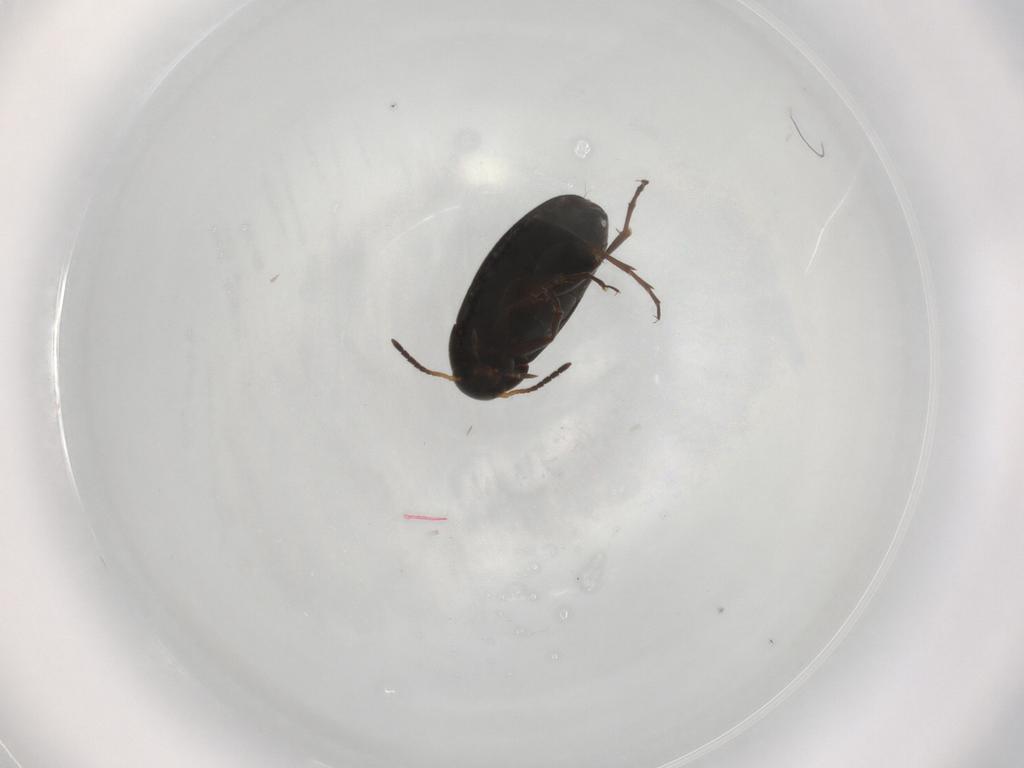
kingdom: Animalia
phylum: Arthropoda
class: Insecta
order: Coleoptera
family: Scraptiidae
